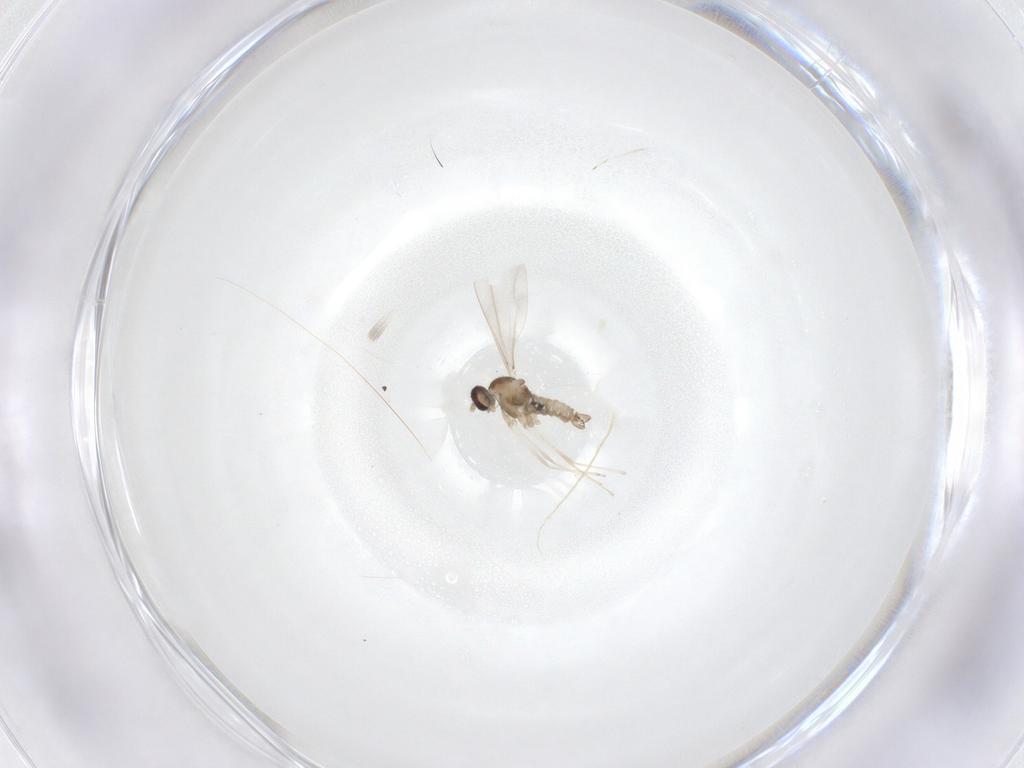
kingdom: Animalia
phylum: Arthropoda
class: Insecta
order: Diptera
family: Cecidomyiidae
